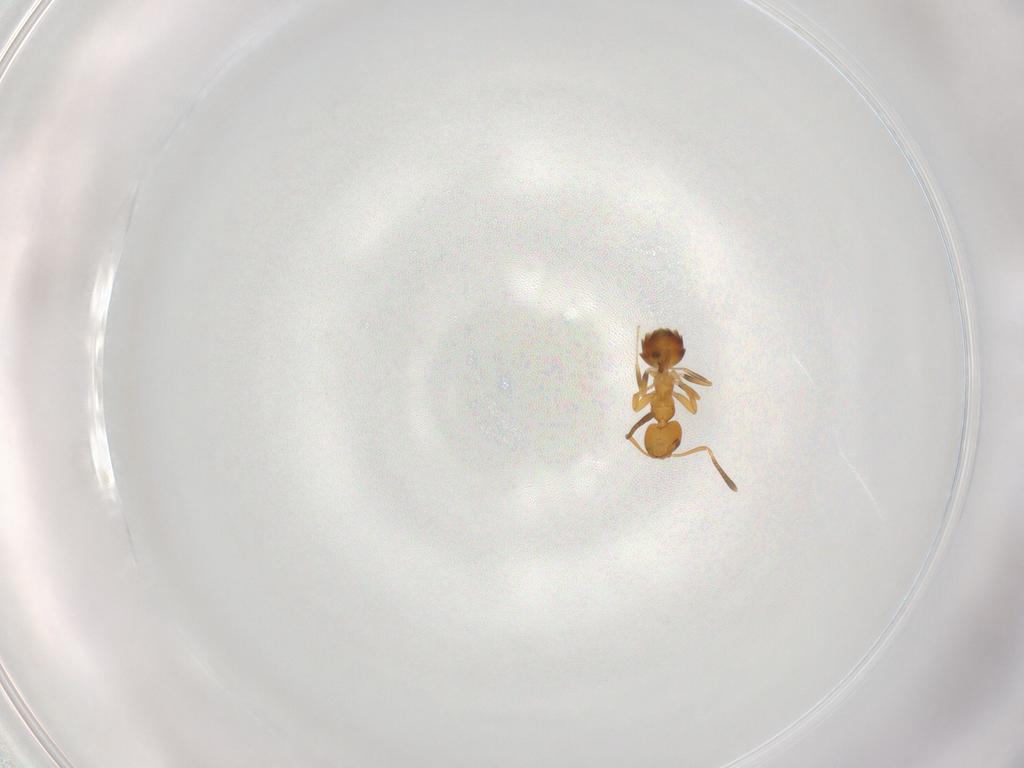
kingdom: Animalia
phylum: Arthropoda
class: Insecta
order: Hymenoptera
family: Formicidae
